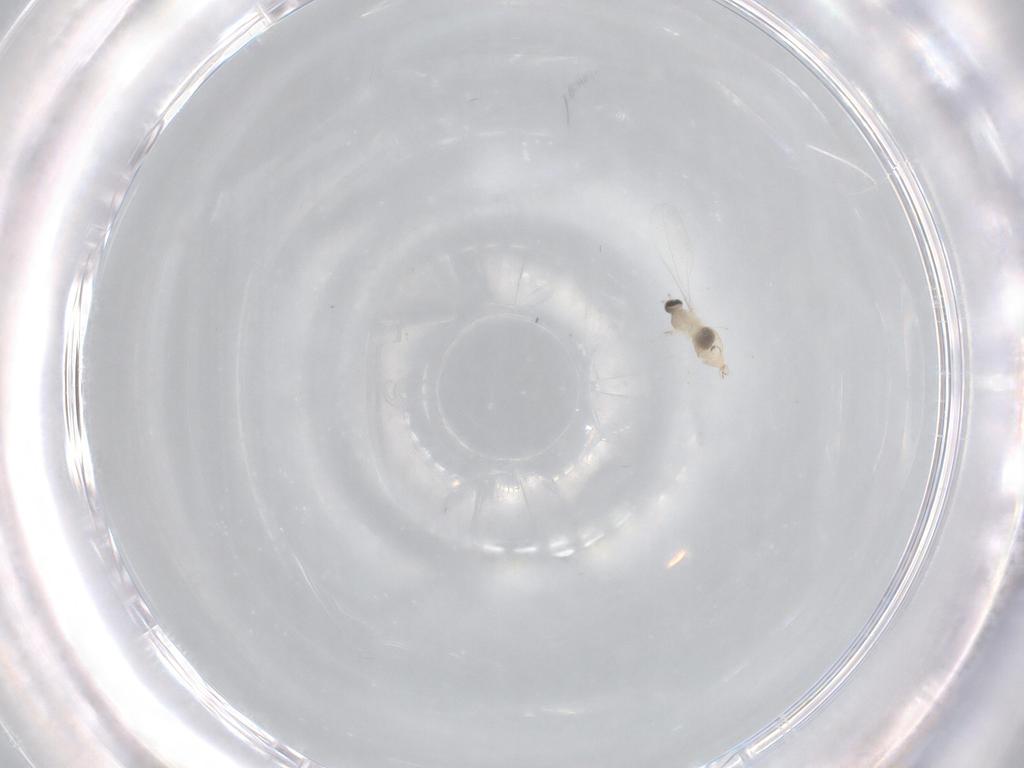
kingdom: Animalia
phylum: Arthropoda
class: Insecta
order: Diptera
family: Cecidomyiidae
